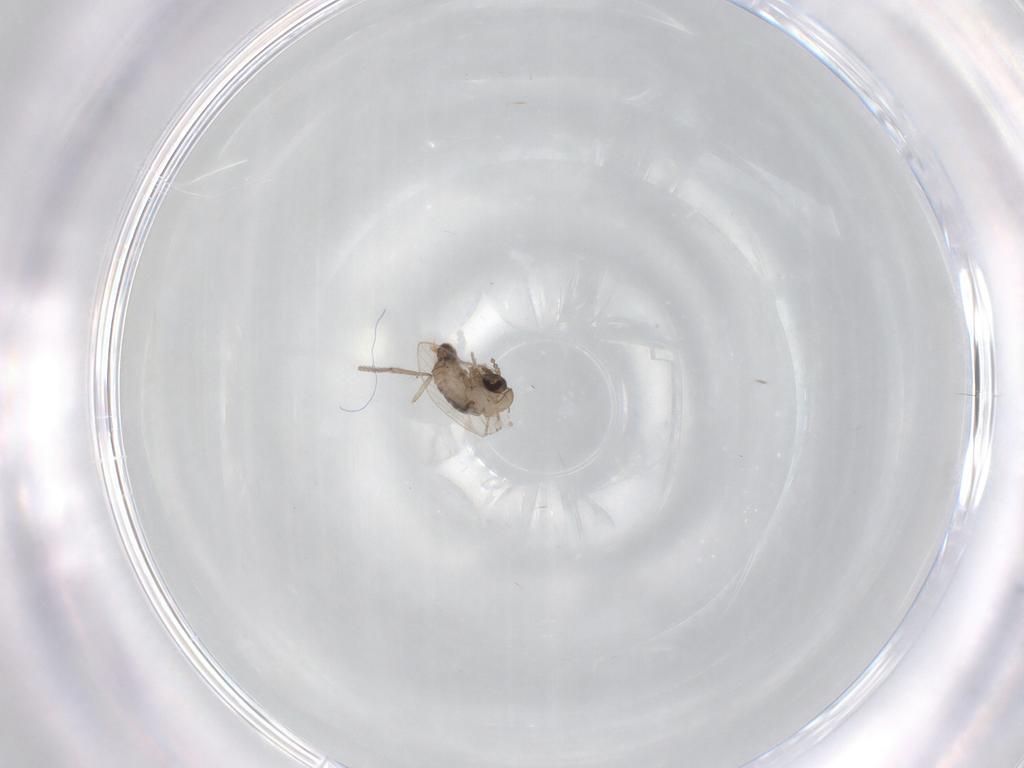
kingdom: Animalia
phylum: Arthropoda
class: Insecta
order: Diptera
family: Psychodidae
